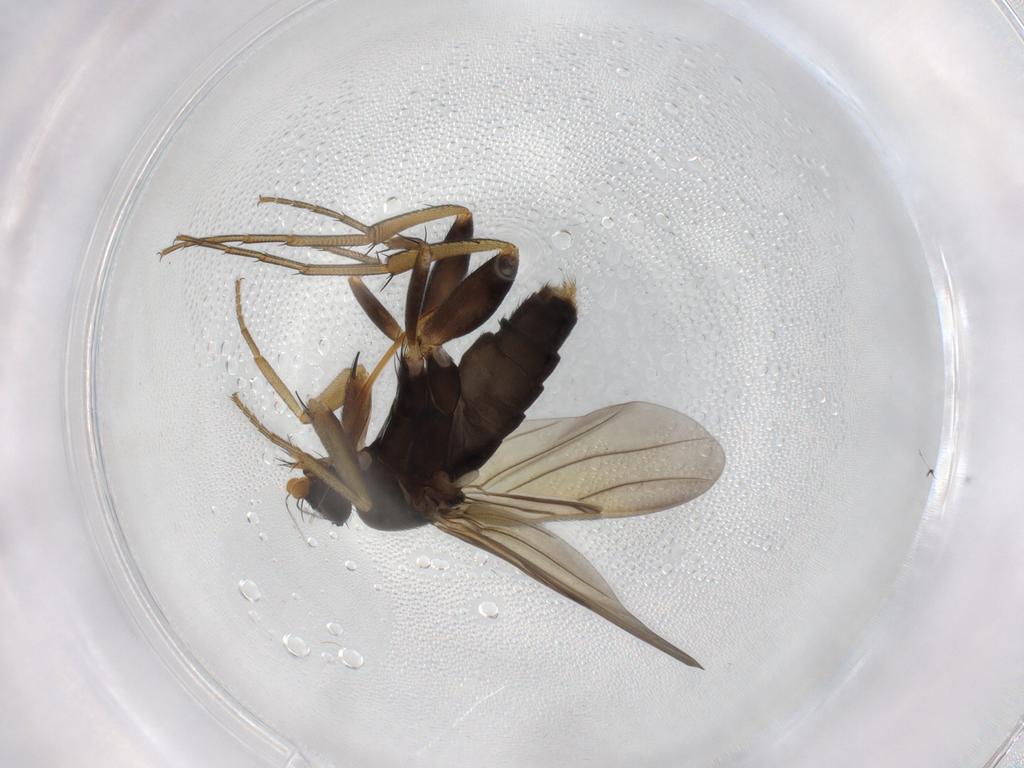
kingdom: Animalia
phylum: Arthropoda
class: Insecta
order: Diptera
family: Phoridae
